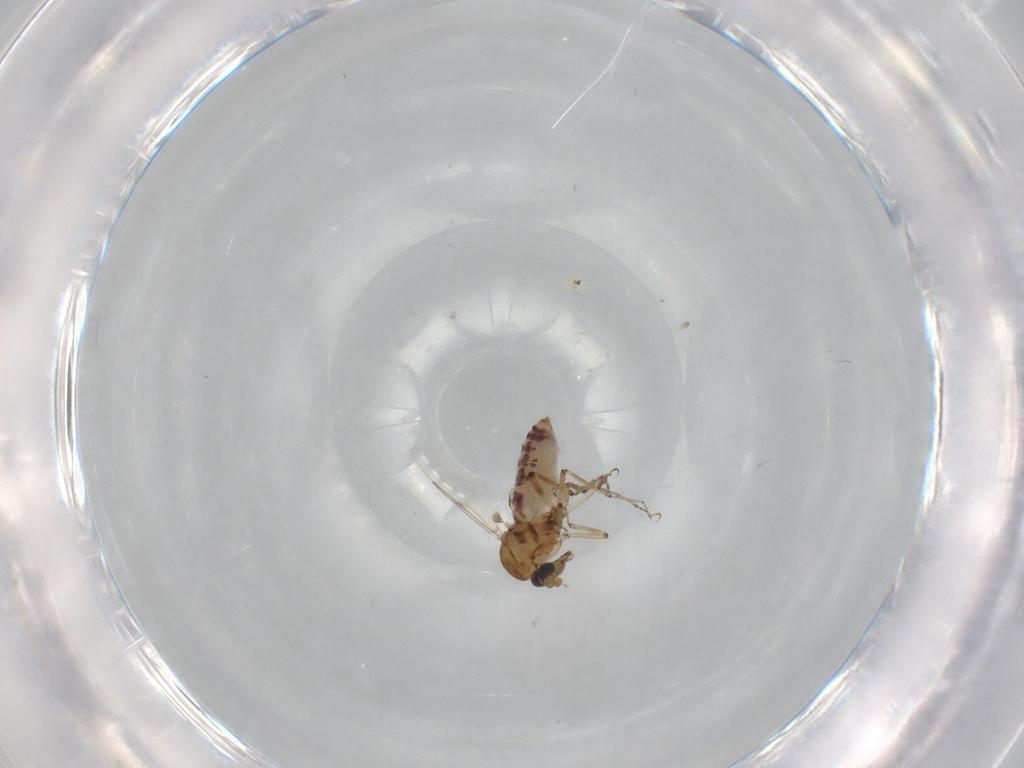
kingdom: Animalia
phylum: Arthropoda
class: Insecta
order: Diptera
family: Ceratopogonidae
